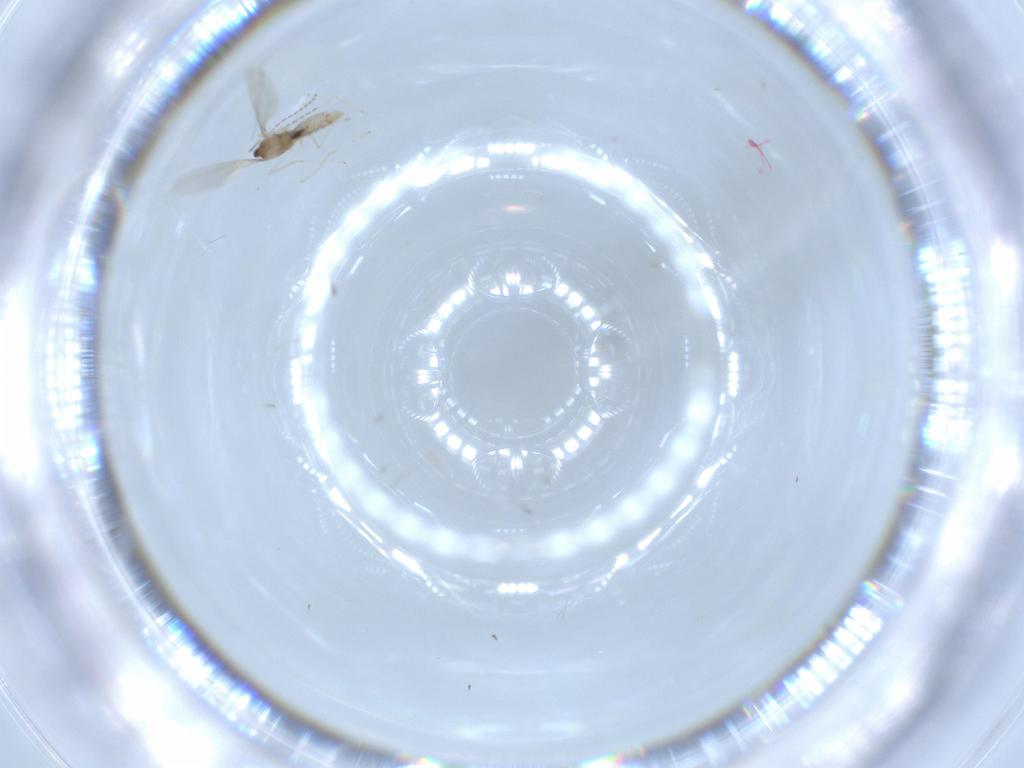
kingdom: Animalia
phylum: Arthropoda
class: Insecta
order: Diptera
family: Cecidomyiidae
